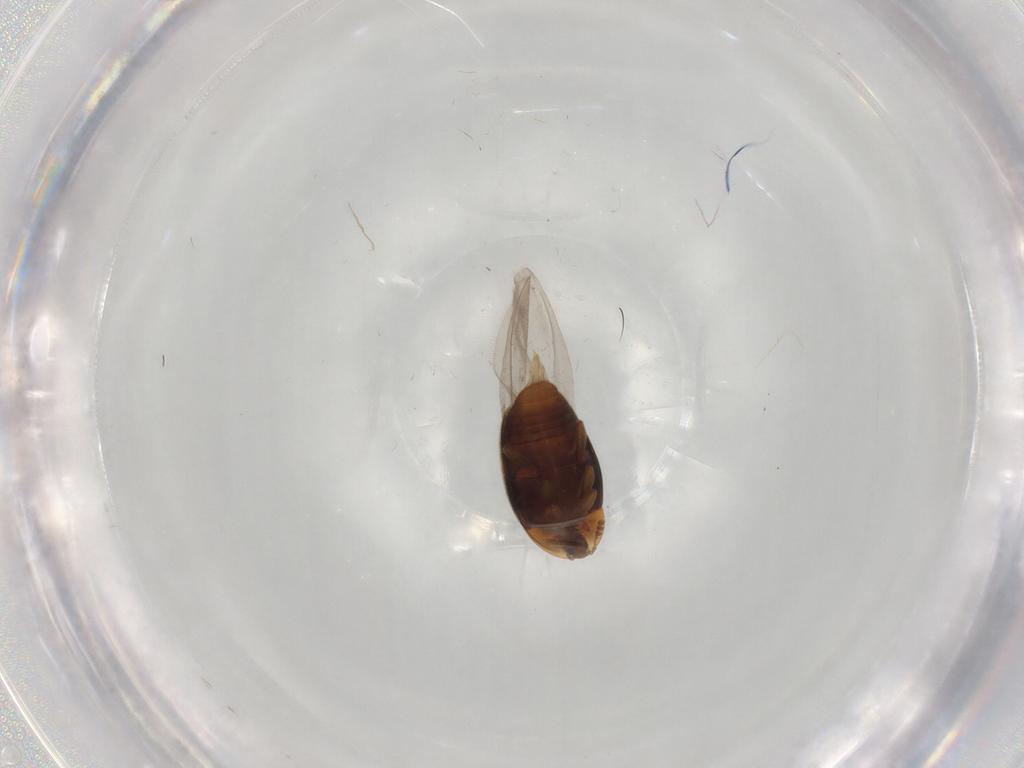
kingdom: Animalia
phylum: Arthropoda
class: Insecta
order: Coleoptera
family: Corylophidae
